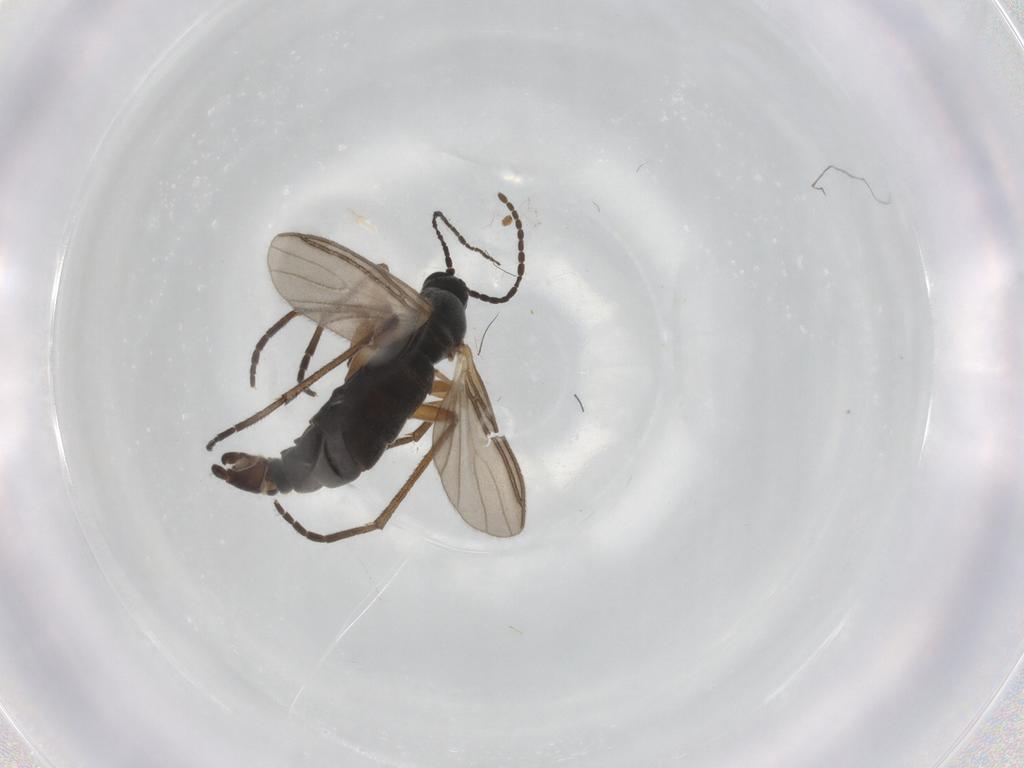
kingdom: Animalia
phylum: Arthropoda
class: Insecta
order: Diptera
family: Sciaridae
